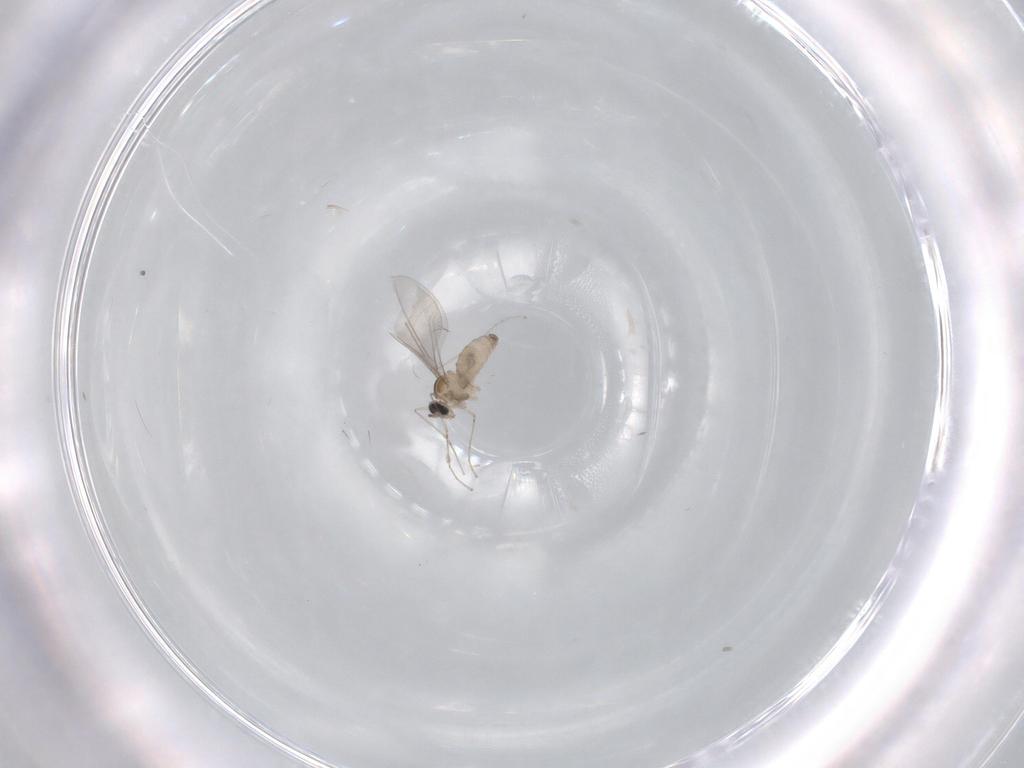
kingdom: Animalia
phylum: Arthropoda
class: Insecta
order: Diptera
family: Cecidomyiidae
